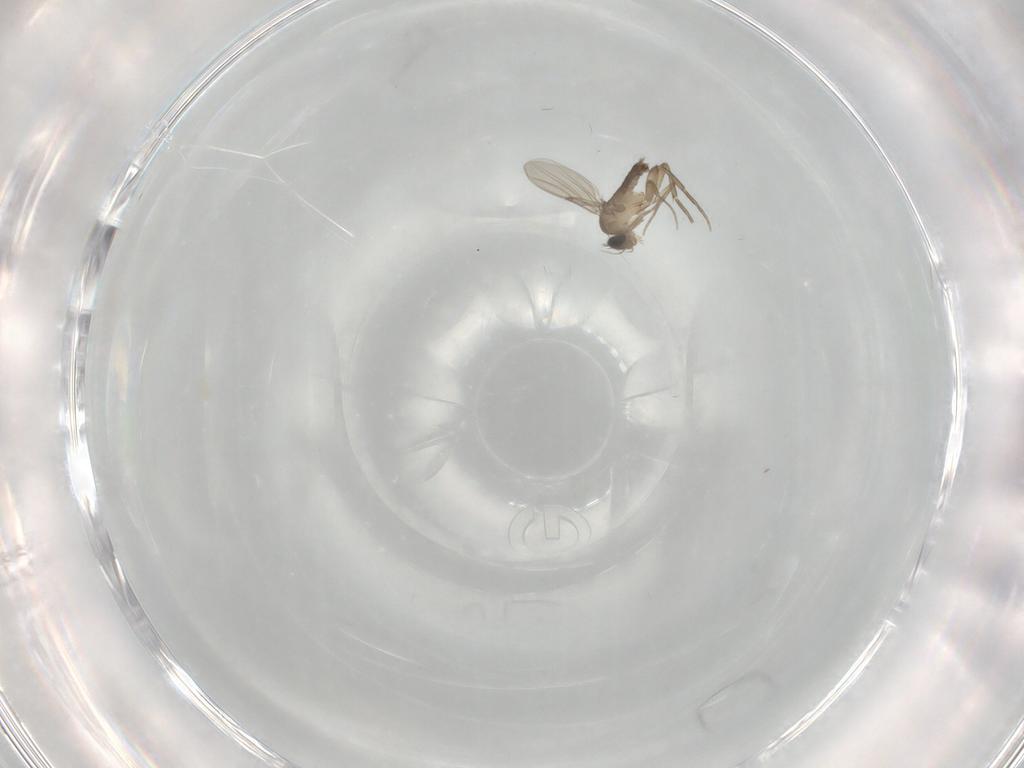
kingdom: Animalia
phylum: Arthropoda
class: Insecta
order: Diptera
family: Phoridae
